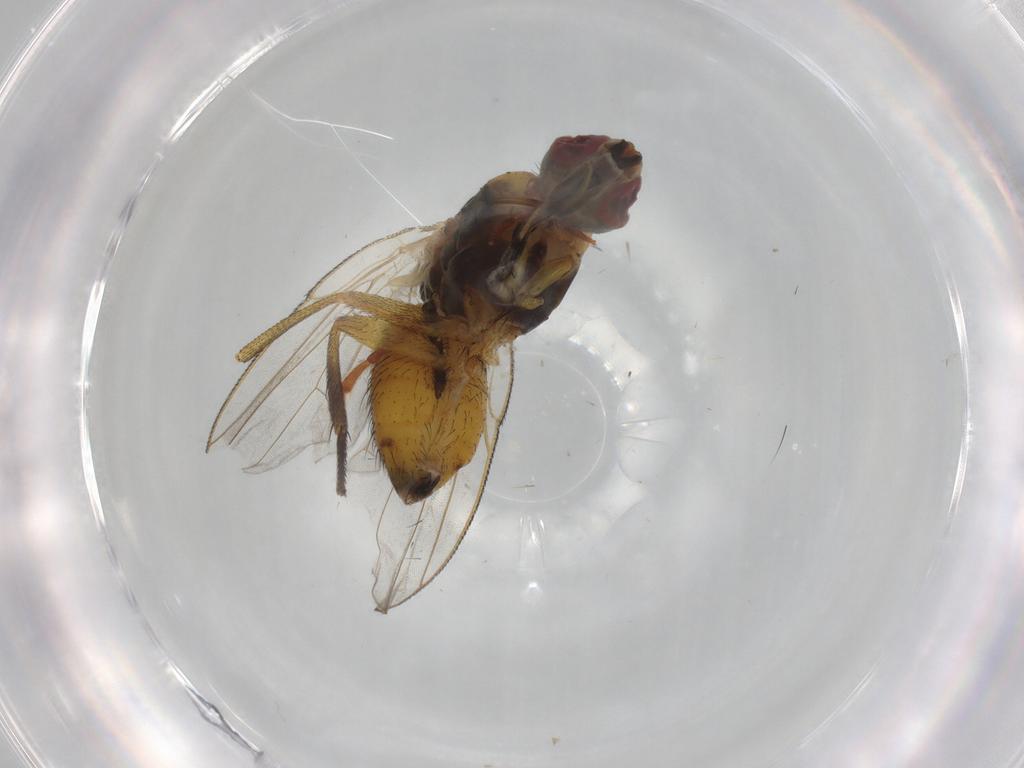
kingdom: Animalia
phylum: Arthropoda
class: Insecta
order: Diptera
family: Muscidae
